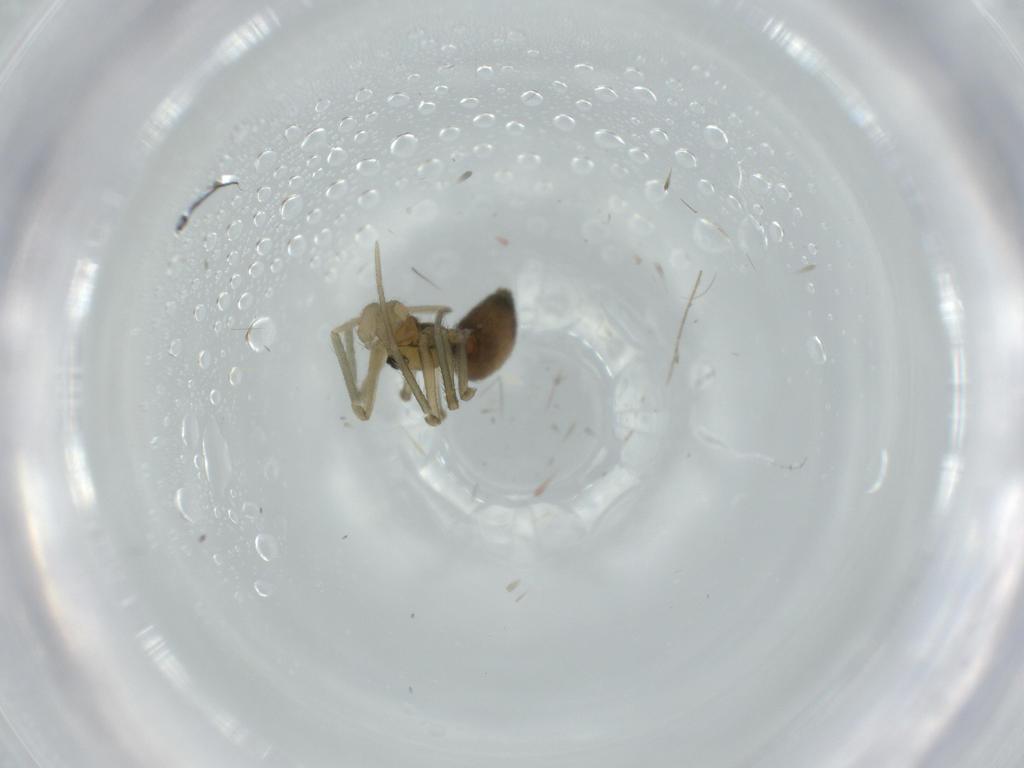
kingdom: Animalia
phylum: Arthropoda
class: Arachnida
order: Araneae
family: Linyphiidae
